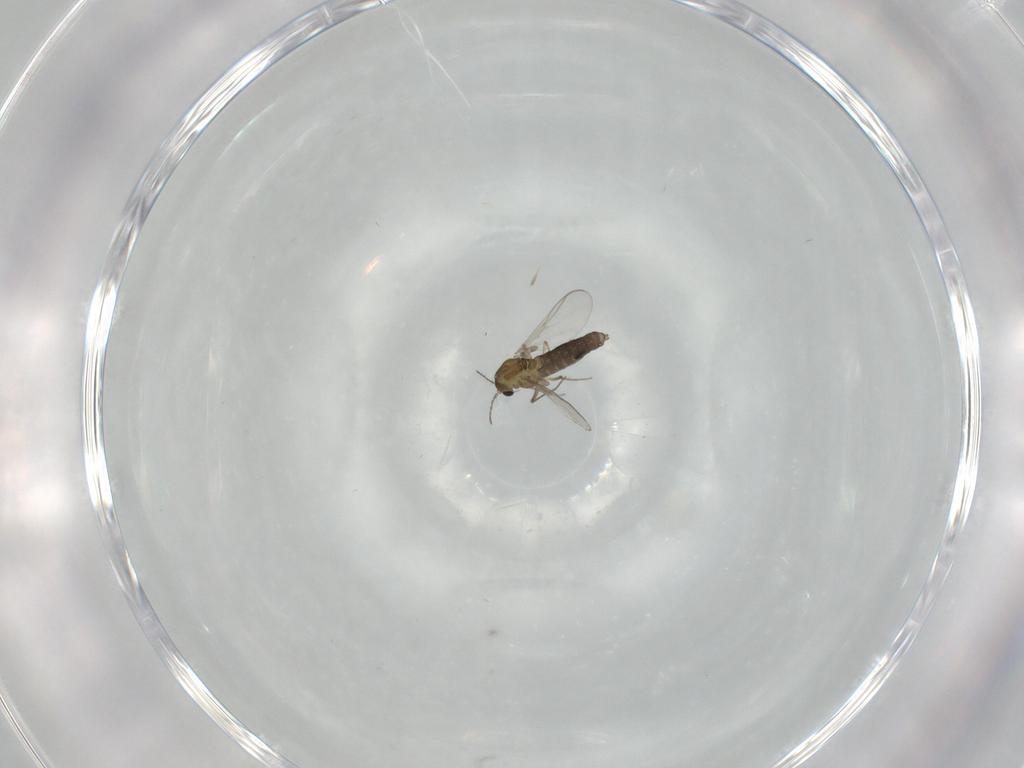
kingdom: Animalia
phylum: Arthropoda
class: Insecta
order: Diptera
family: Chironomidae
